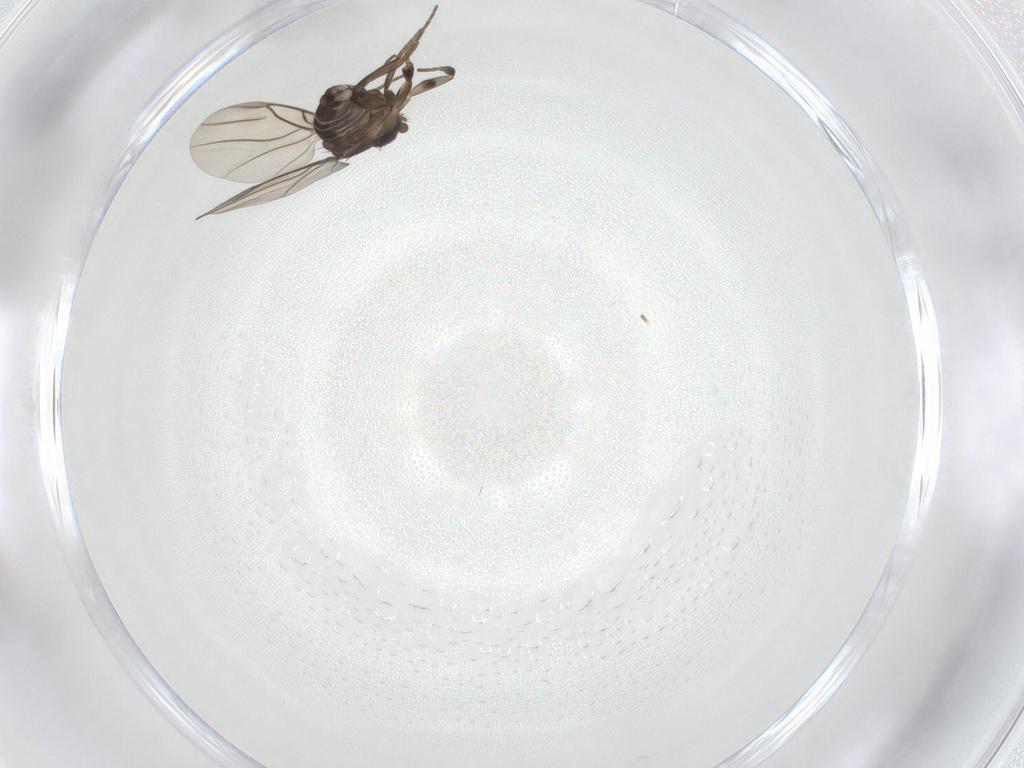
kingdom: Animalia
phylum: Arthropoda
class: Insecta
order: Diptera
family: Phoridae
